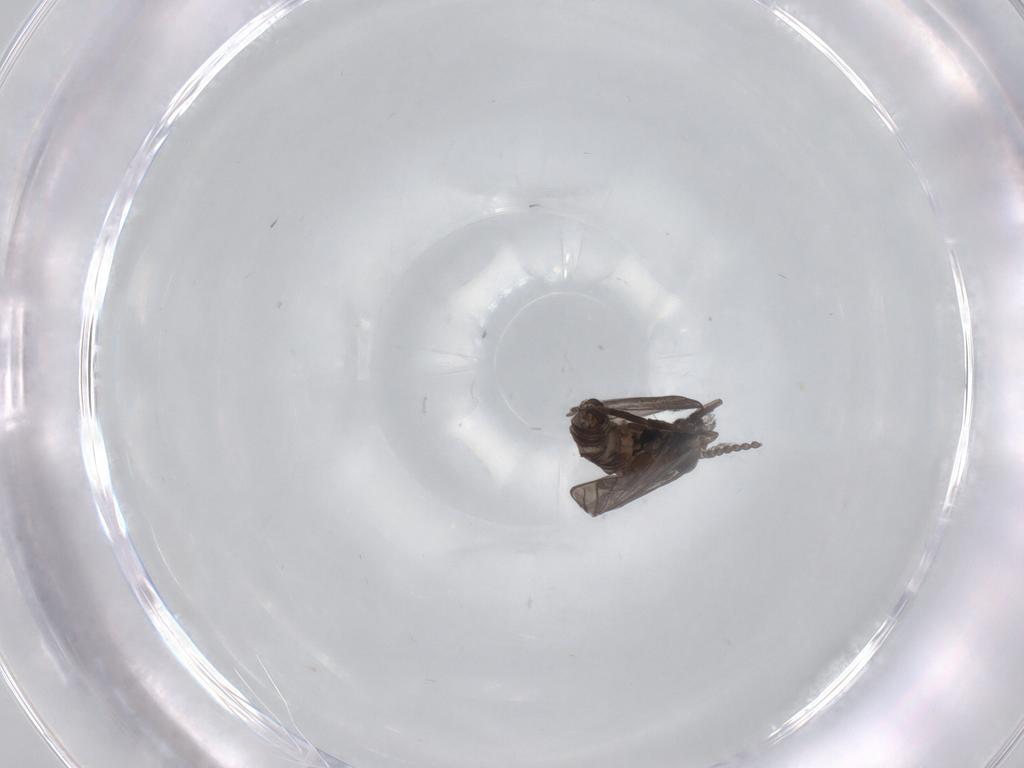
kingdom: Animalia
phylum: Arthropoda
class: Insecta
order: Diptera
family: Psychodidae
